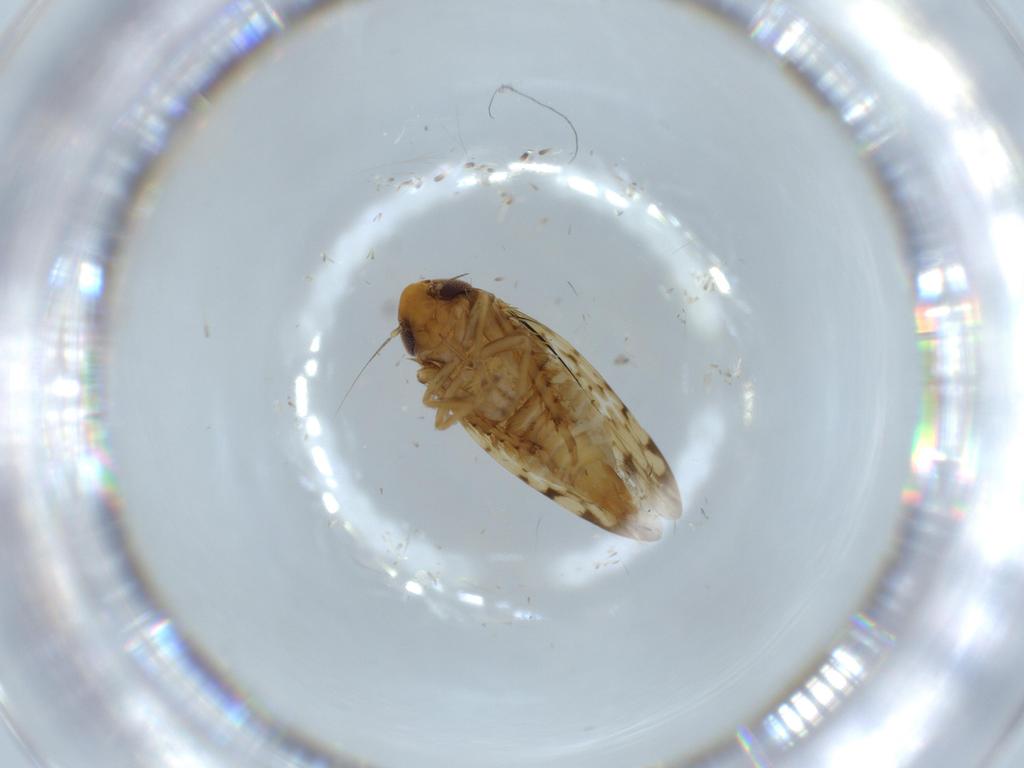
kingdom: Animalia
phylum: Arthropoda
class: Insecta
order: Hemiptera
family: Cicadellidae
